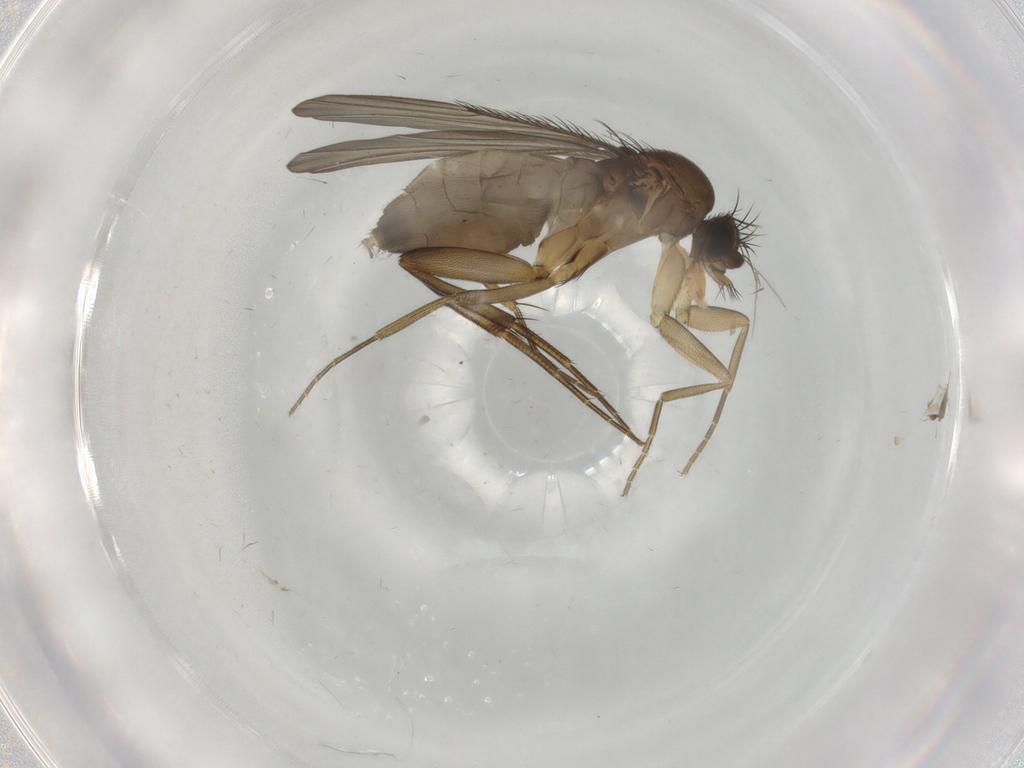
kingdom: Animalia
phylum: Arthropoda
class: Insecta
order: Diptera
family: Phoridae
